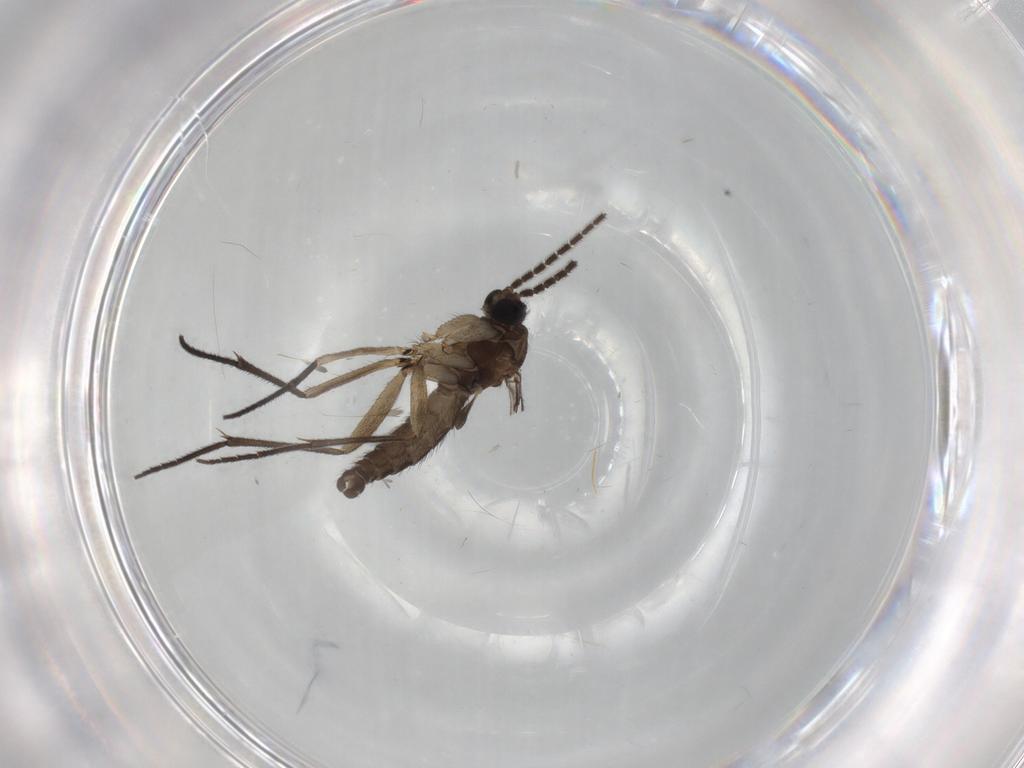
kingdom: Animalia
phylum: Arthropoda
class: Insecta
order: Diptera
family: Sciaridae
